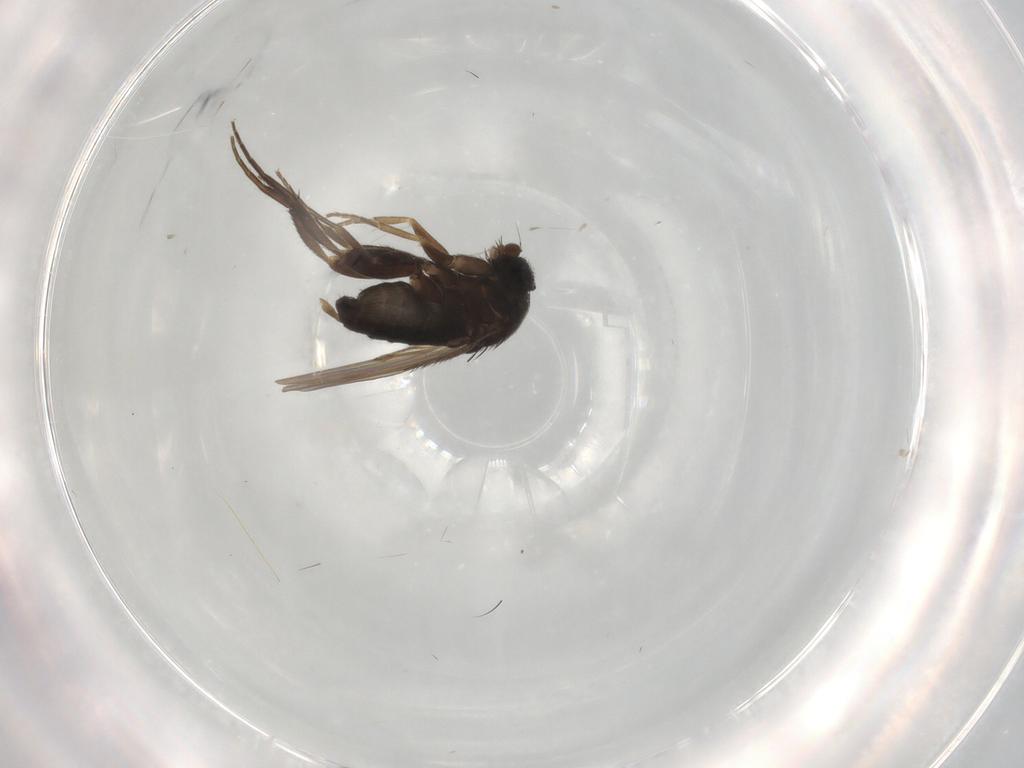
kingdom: Animalia
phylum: Arthropoda
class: Insecta
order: Diptera
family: Phoridae
